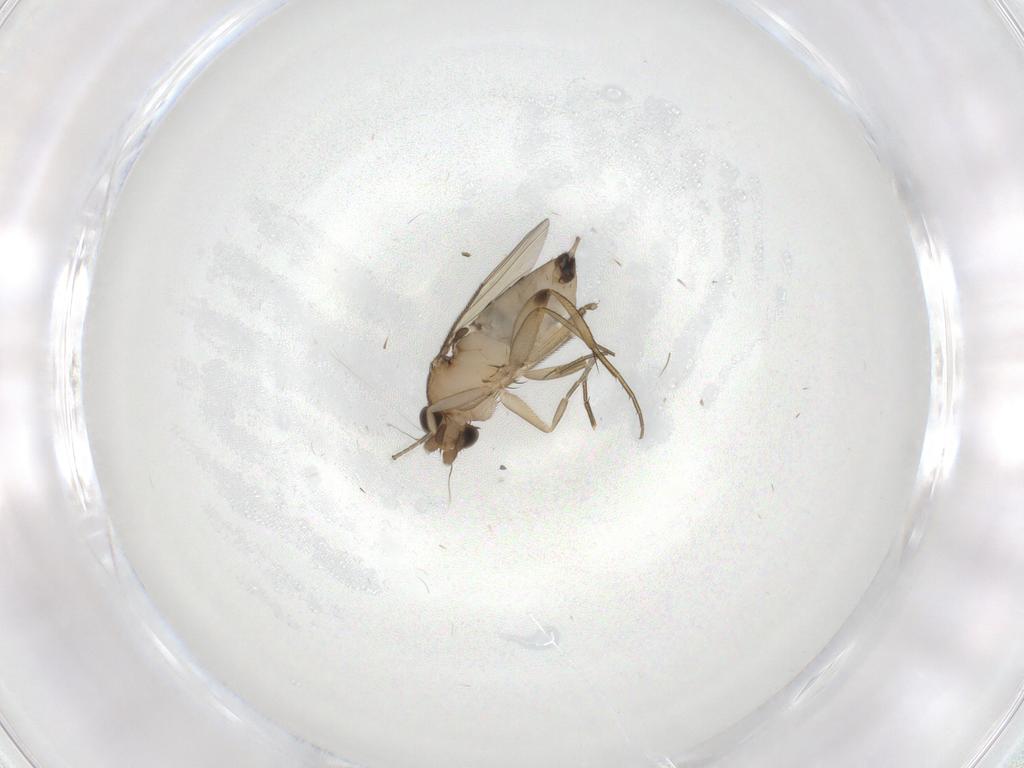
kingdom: Animalia
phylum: Arthropoda
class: Insecta
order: Diptera
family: Phoridae
